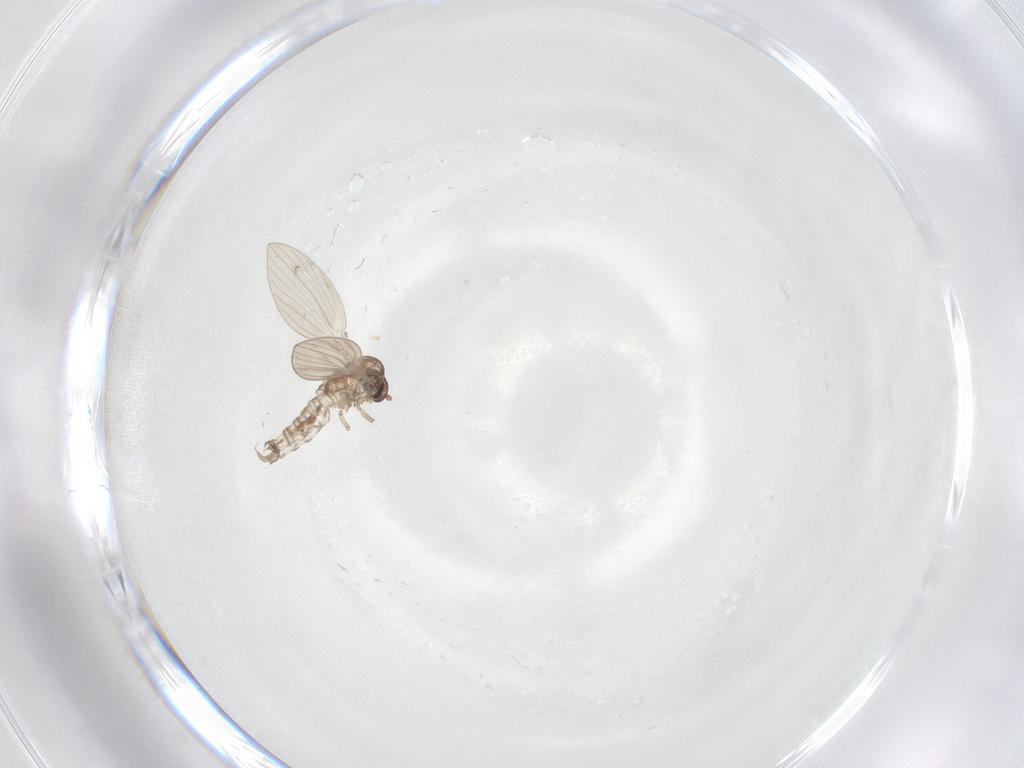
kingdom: Animalia
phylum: Arthropoda
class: Insecta
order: Diptera
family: Psychodidae
